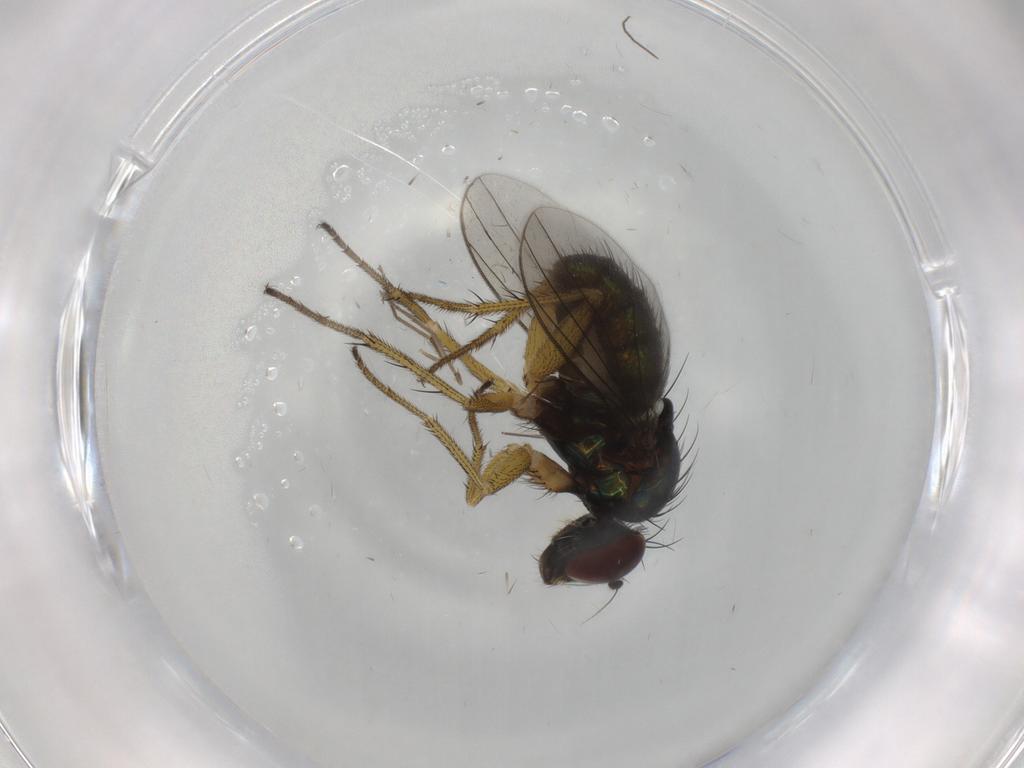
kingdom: Animalia
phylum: Arthropoda
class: Insecta
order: Diptera
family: Dolichopodidae
